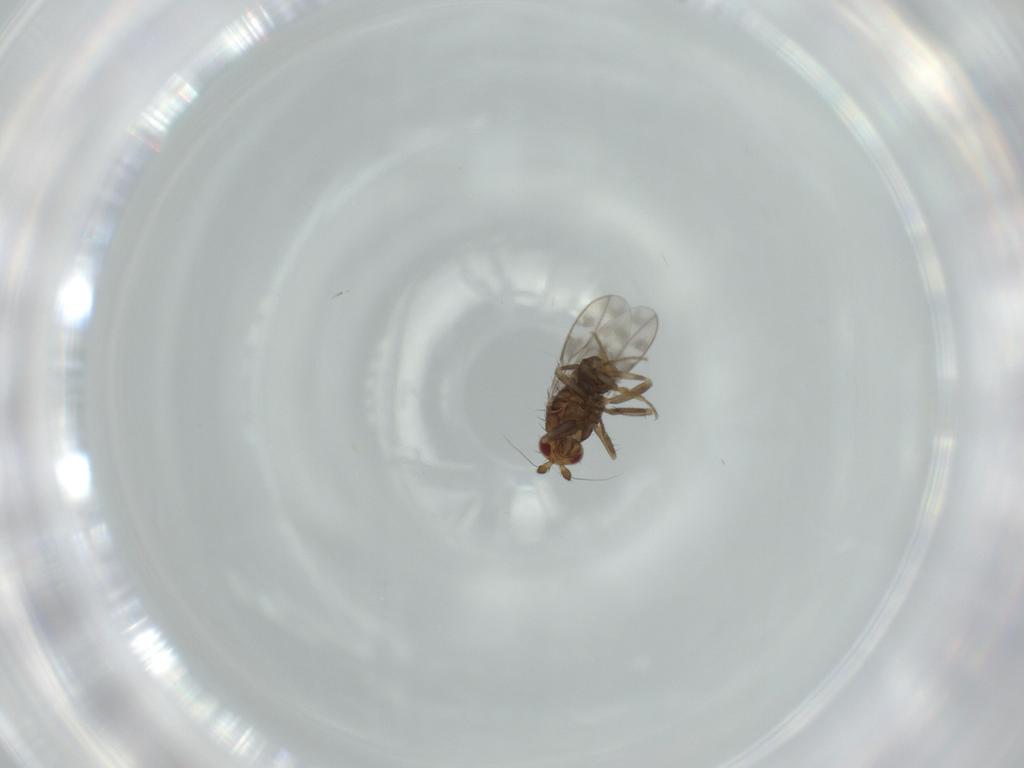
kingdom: Animalia
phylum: Arthropoda
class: Insecta
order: Diptera
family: Sphaeroceridae
